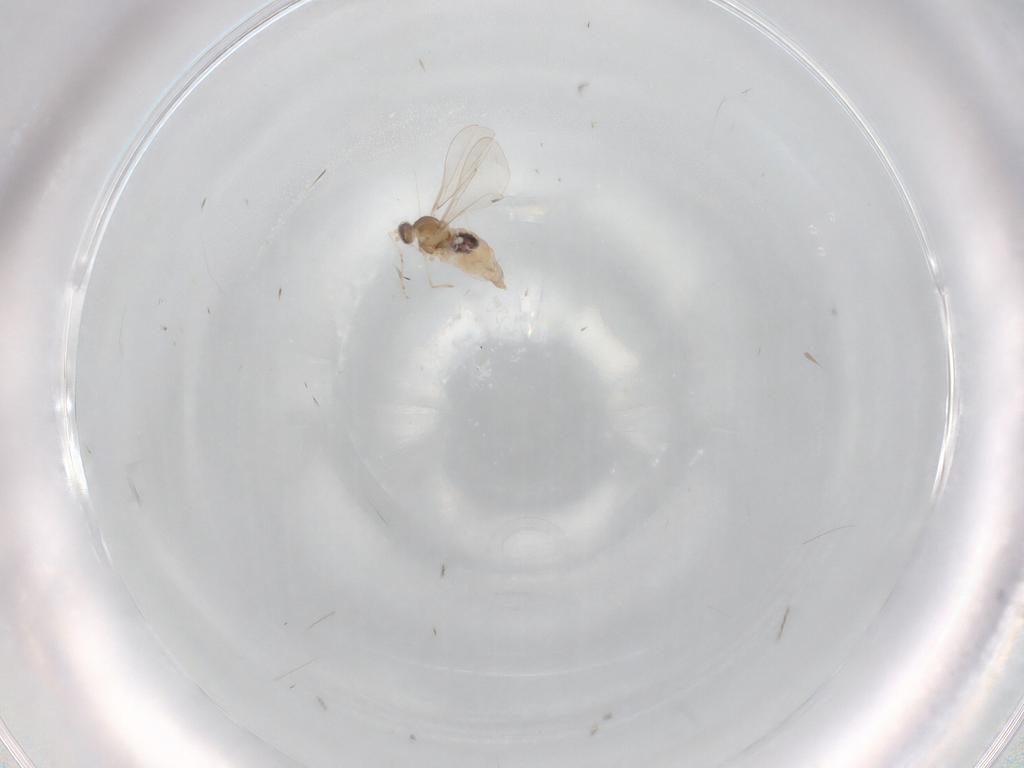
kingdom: Animalia
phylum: Arthropoda
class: Insecta
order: Diptera
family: Cecidomyiidae
